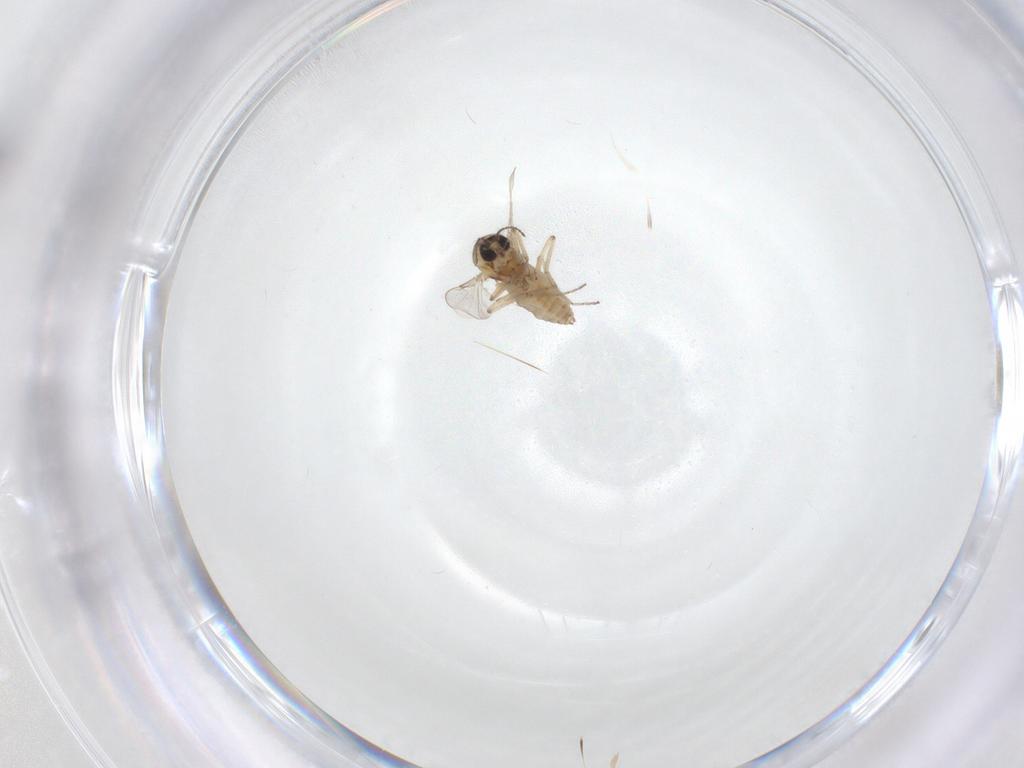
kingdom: Animalia
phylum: Arthropoda
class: Insecta
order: Diptera
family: Ceratopogonidae
